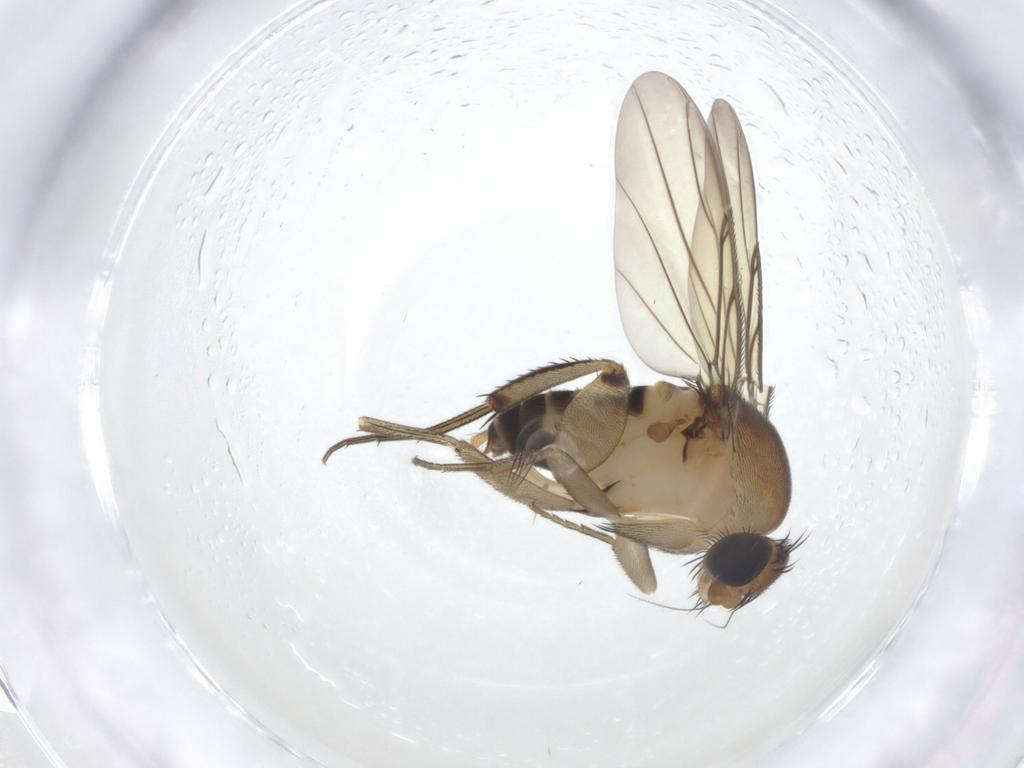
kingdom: Animalia
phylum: Arthropoda
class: Insecta
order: Diptera
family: Phoridae
